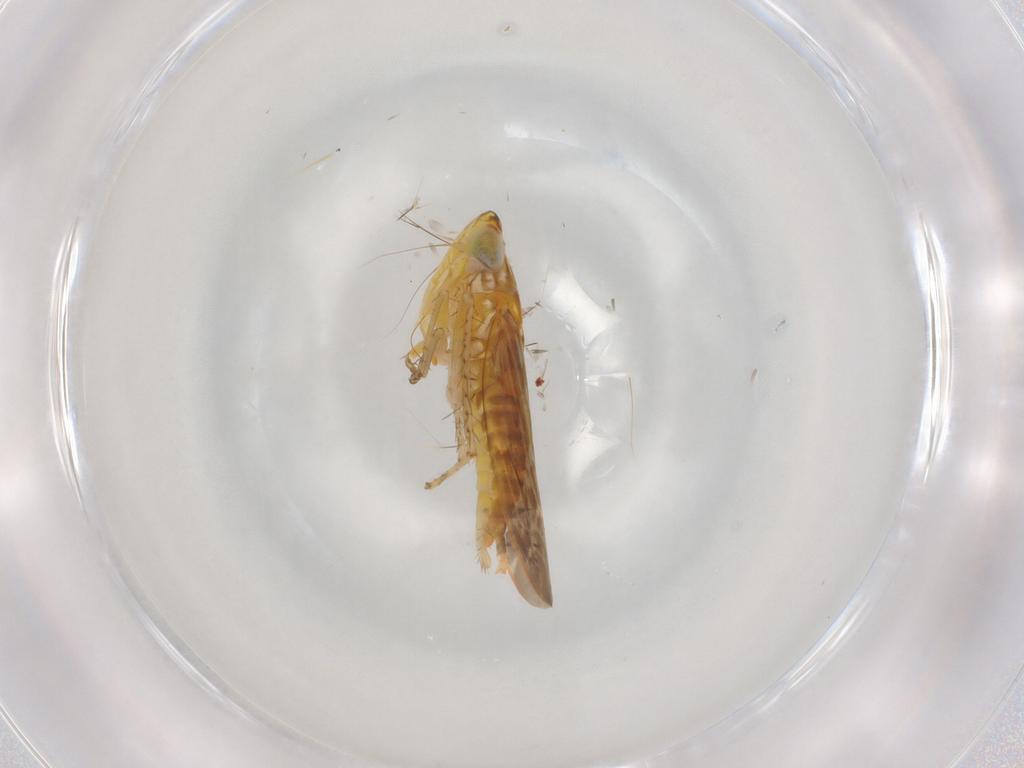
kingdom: Animalia
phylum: Arthropoda
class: Insecta
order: Hemiptera
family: Cicadellidae
